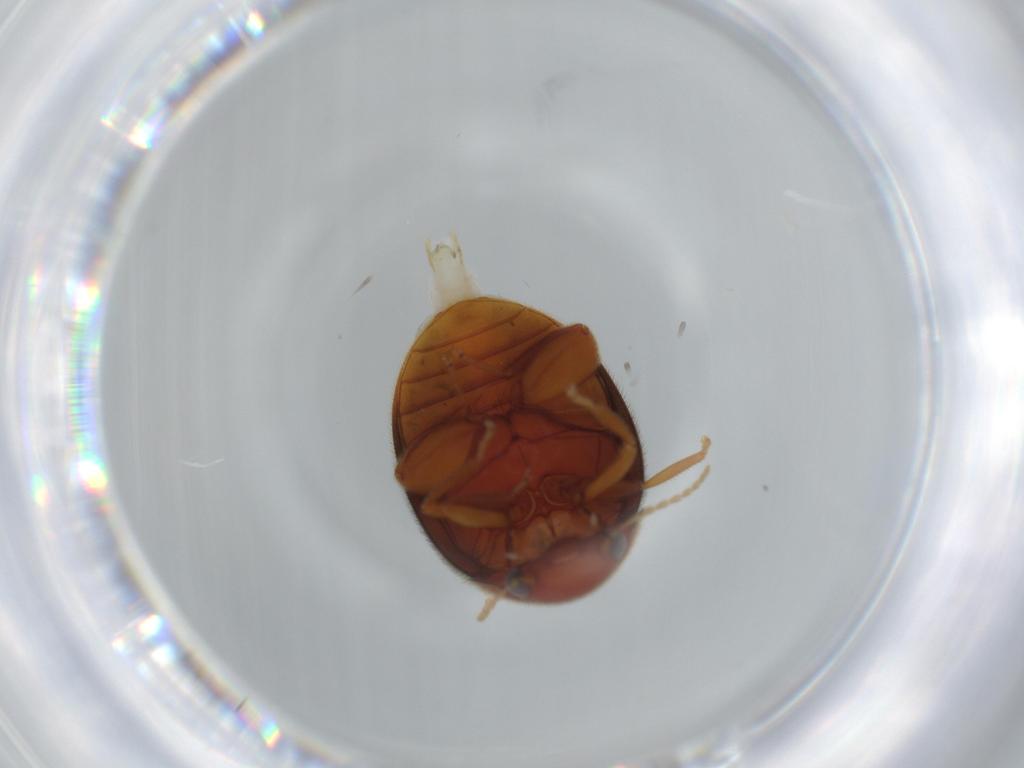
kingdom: Animalia
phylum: Arthropoda
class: Insecta
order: Coleoptera
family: Scirtidae
